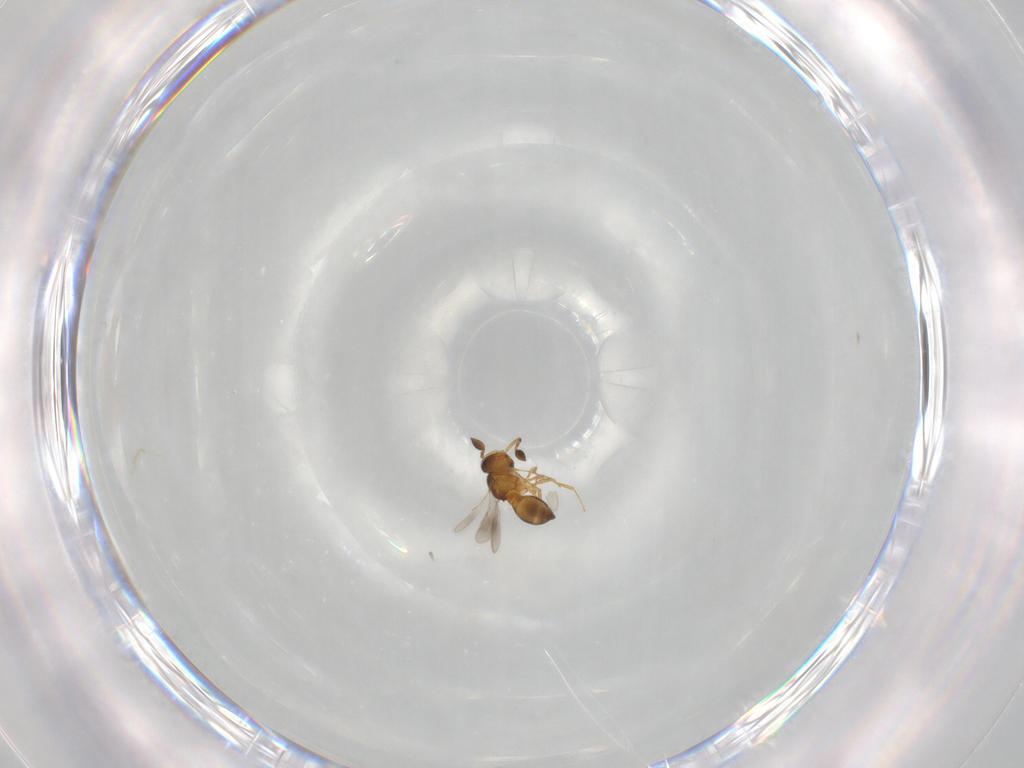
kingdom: Animalia
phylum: Arthropoda
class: Insecta
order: Hymenoptera
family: Scelionidae
